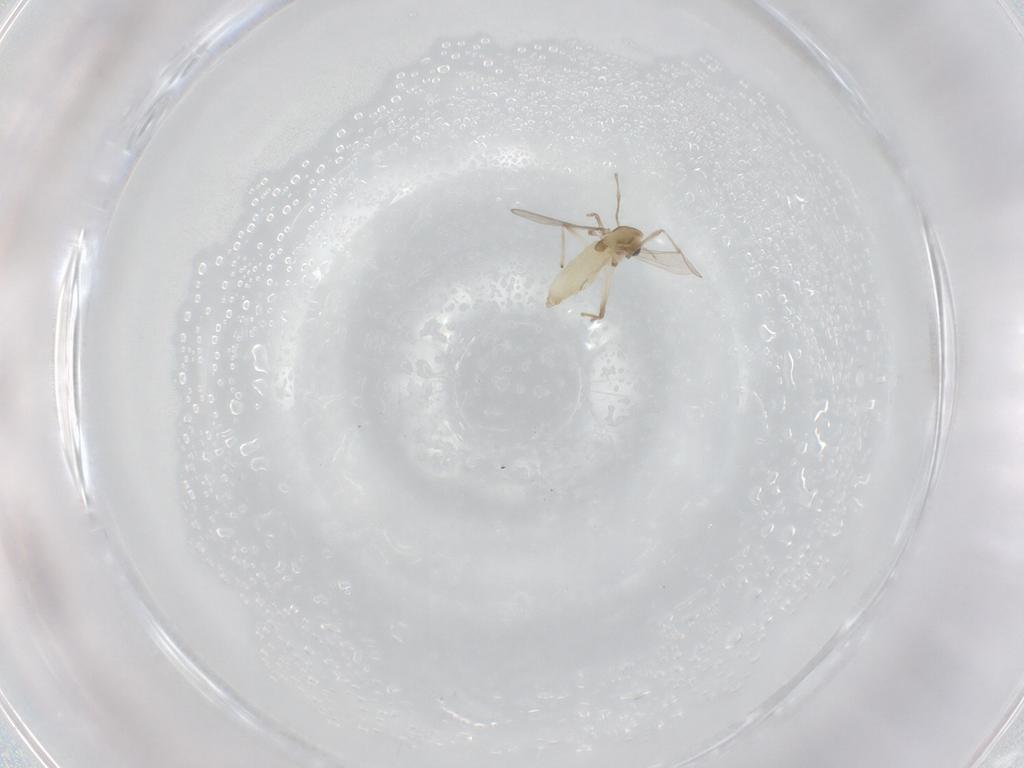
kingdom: Animalia
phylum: Arthropoda
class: Insecta
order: Diptera
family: Chironomidae
